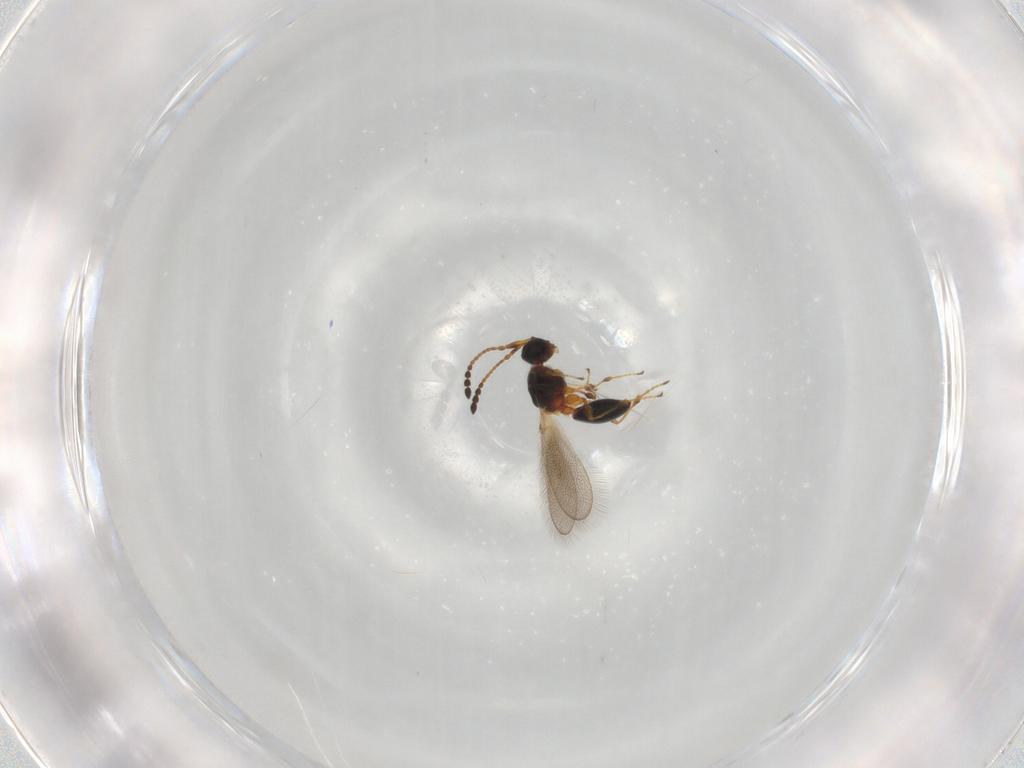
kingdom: Animalia
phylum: Arthropoda
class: Insecta
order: Hymenoptera
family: Diapriidae
